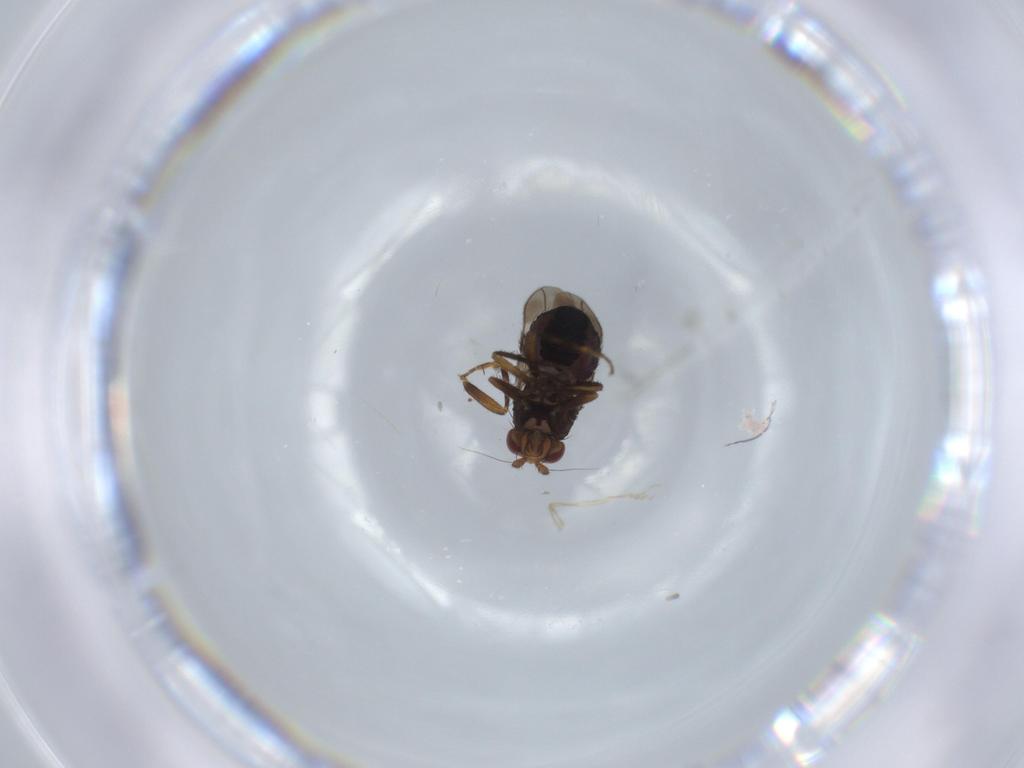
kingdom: Animalia
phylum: Arthropoda
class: Insecta
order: Diptera
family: Sphaeroceridae
